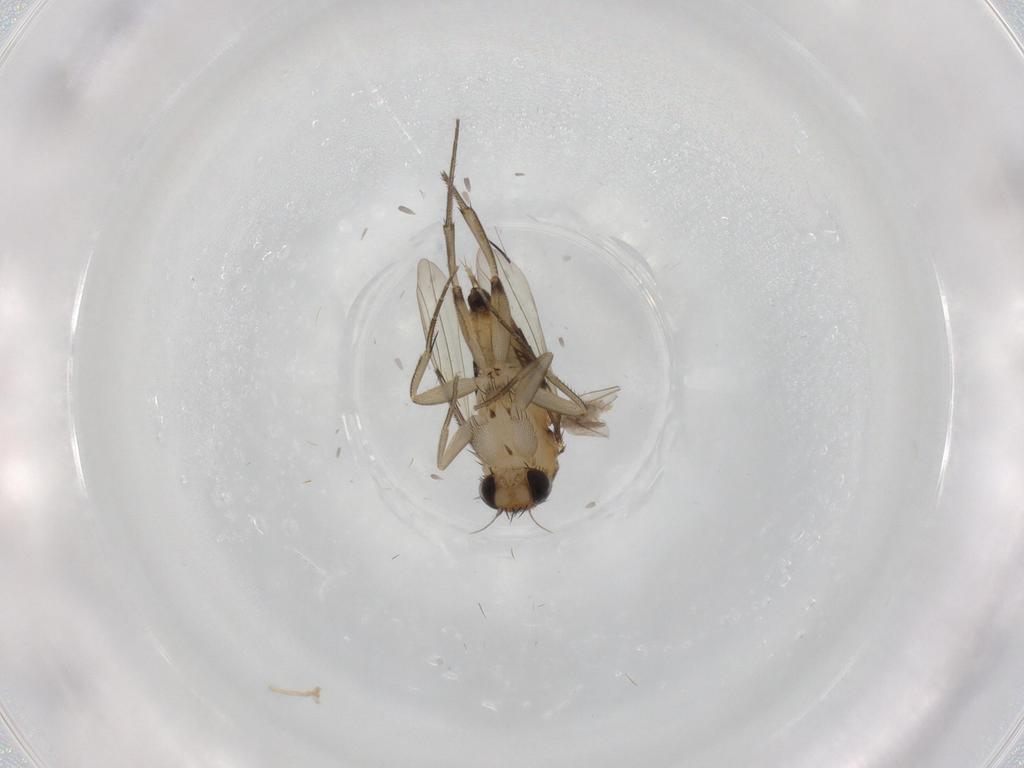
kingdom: Animalia
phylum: Arthropoda
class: Insecta
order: Diptera
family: Phoridae
